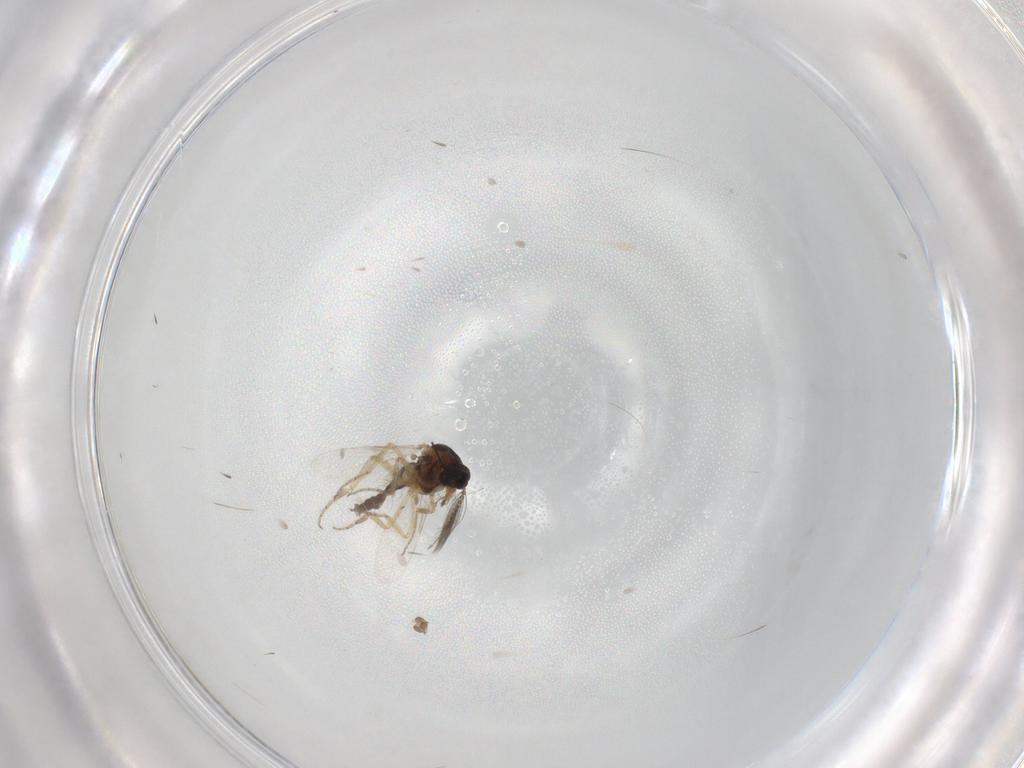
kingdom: Animalia
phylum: Arthropoda
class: Insecta
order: Diptera
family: Ceratopogonidae
